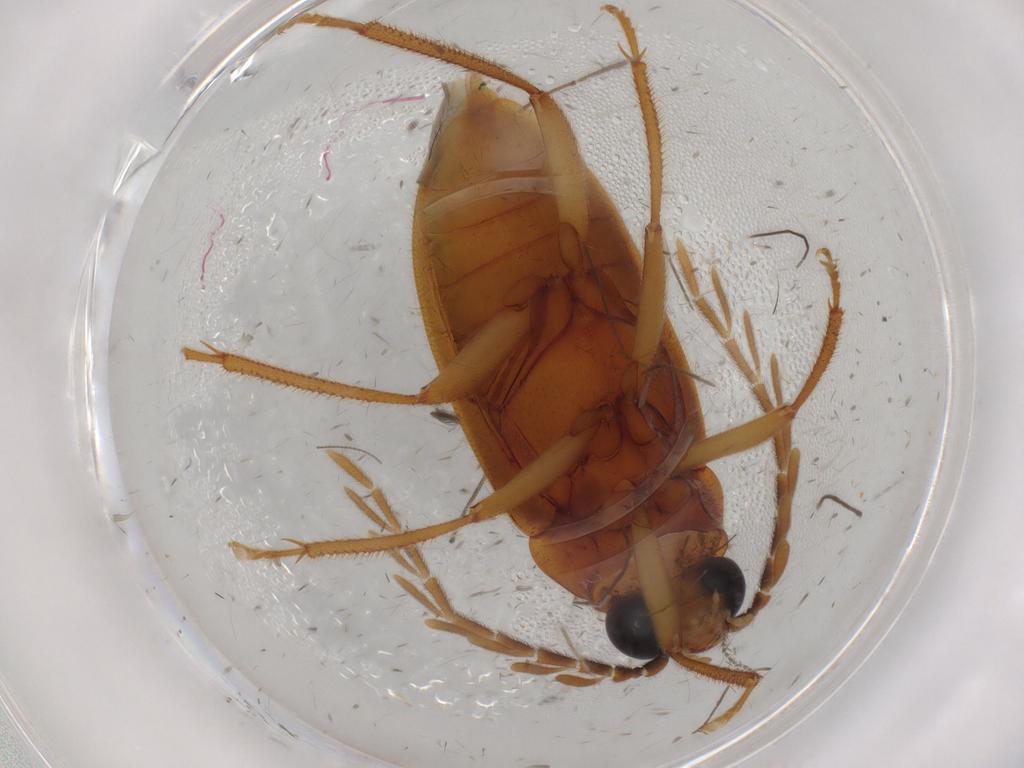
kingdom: Animalia
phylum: Arthropoda
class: Insecta
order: Coleoptera
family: Ptilodactylidae
